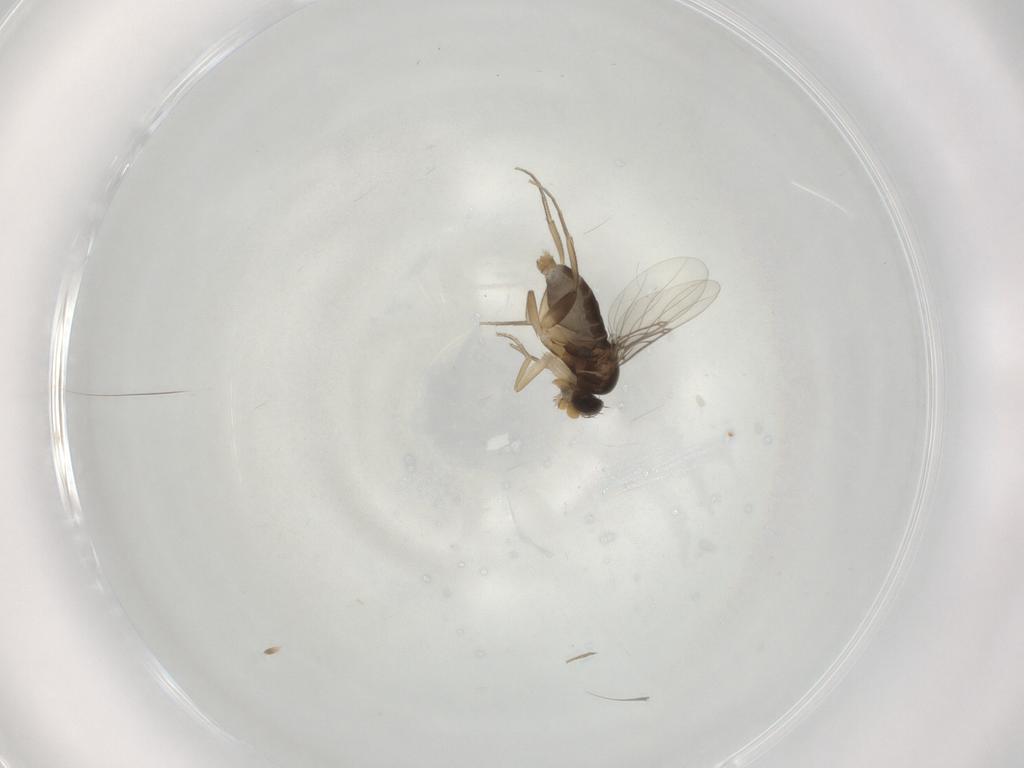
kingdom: Animalia
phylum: Arthropoda
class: Insecta
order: Diptera
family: Phoridae
